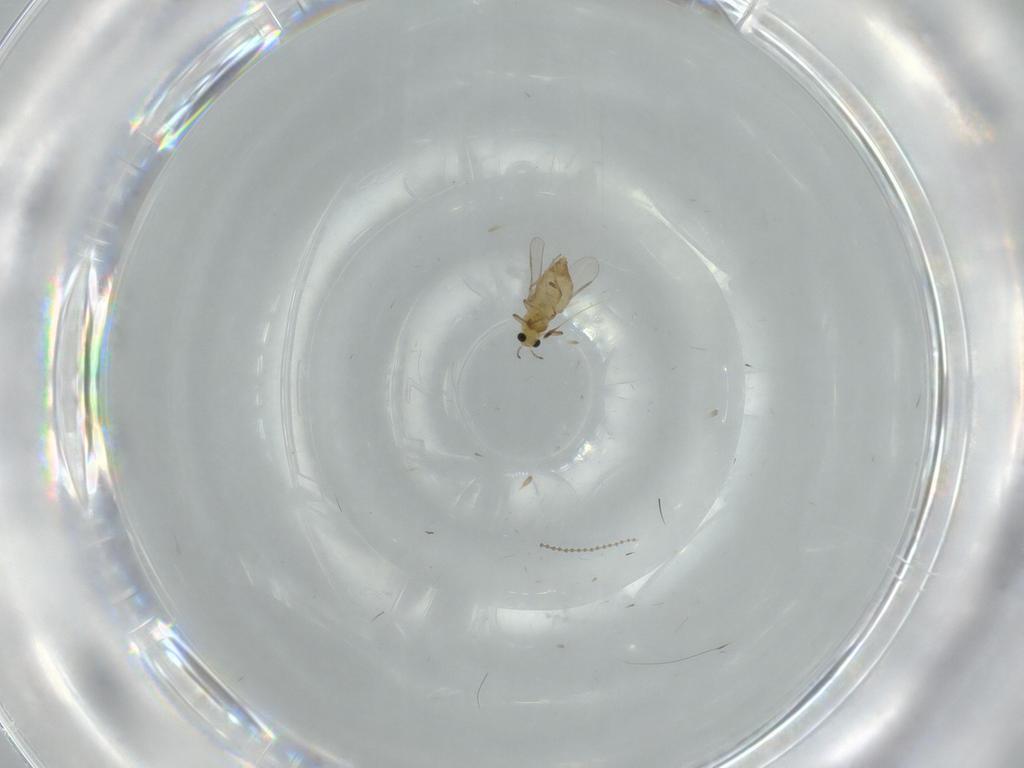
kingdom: Animalia
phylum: Arthropoda
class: Insecta
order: Diptera
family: Chironomidae
